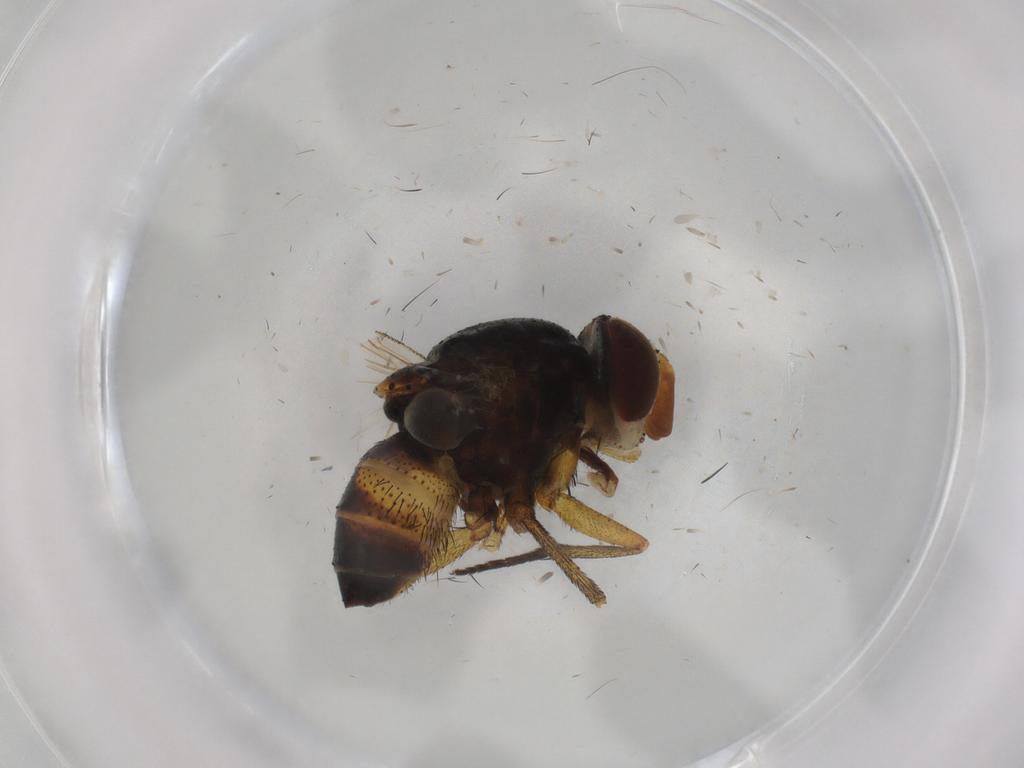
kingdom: Animalia
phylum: Arthropoda
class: Insecta
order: Diptera
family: Glossinidae
